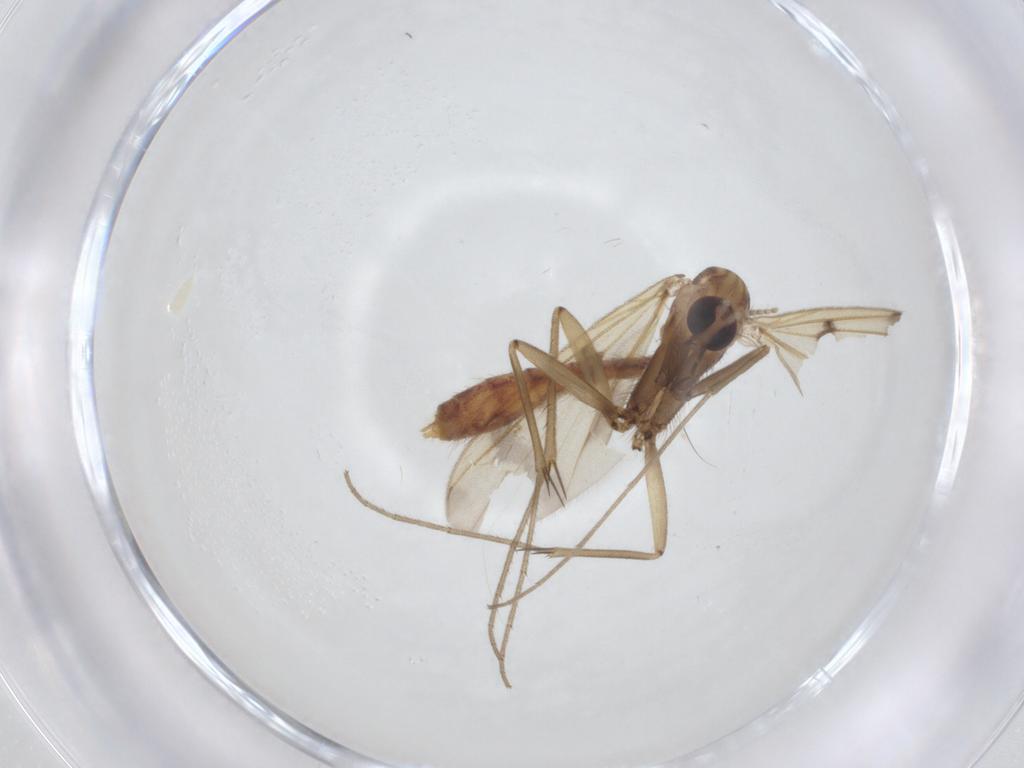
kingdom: Animalia
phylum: Arthropoda
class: Insecta
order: Diptera
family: Mycetophilidae
